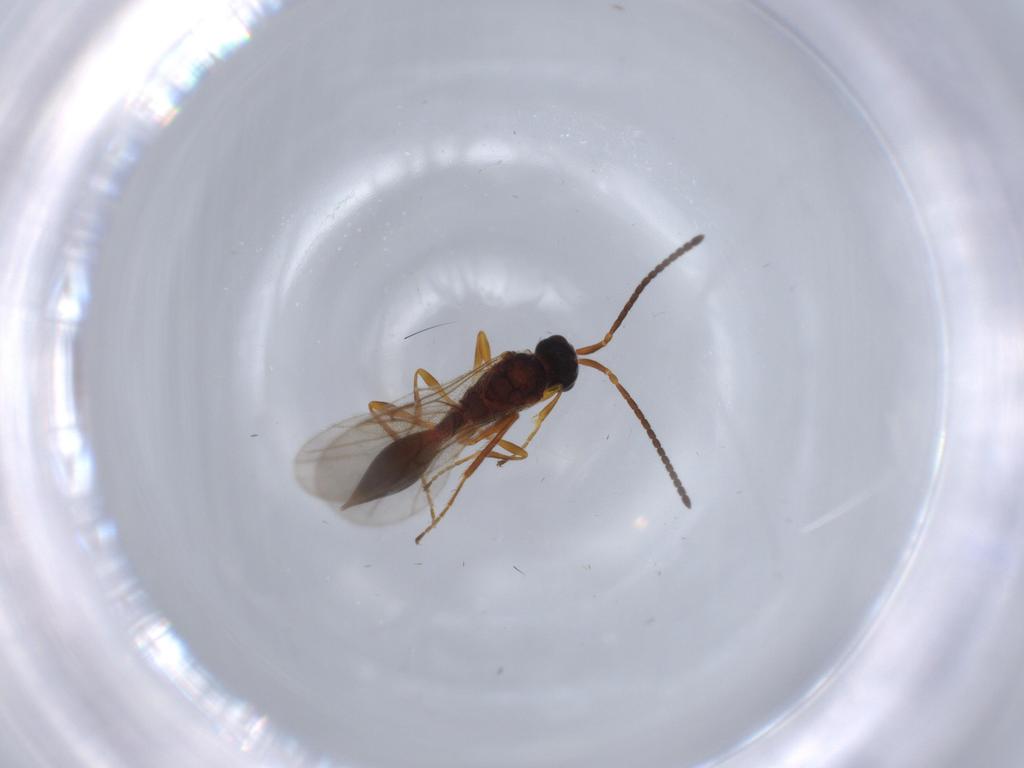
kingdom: Animalia
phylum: Arthropoda
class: Insecta
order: Hymenoptera
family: Diapriidae
